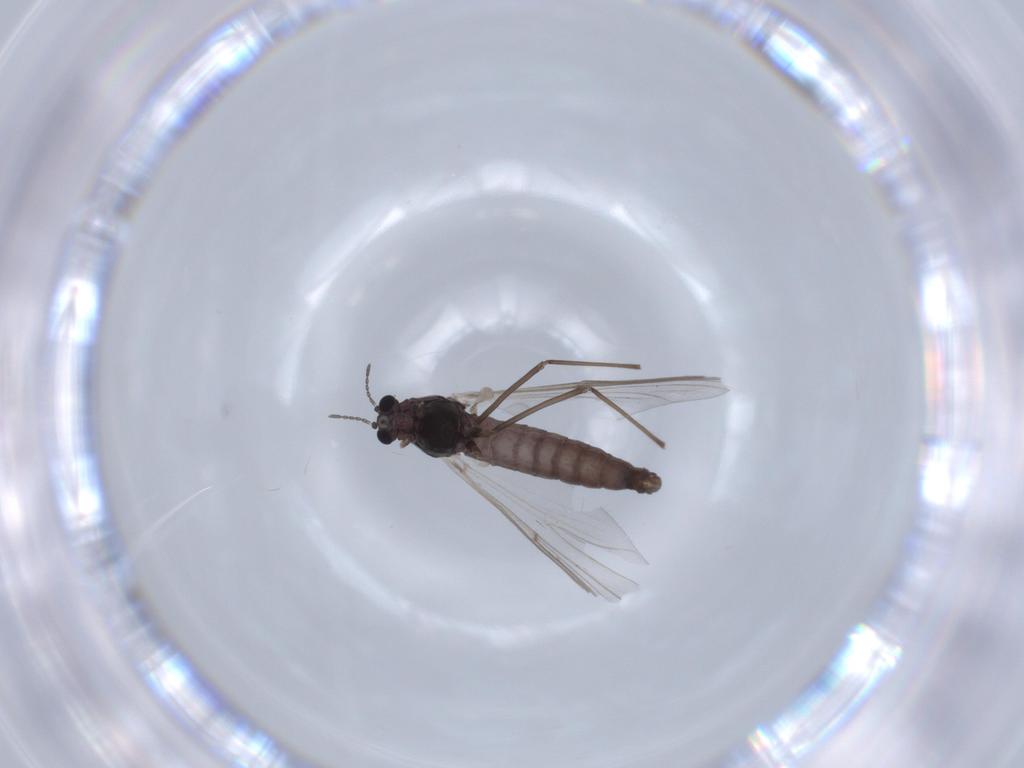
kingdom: Animalia
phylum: Arthropoda
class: Insecta
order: Diptera
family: Chironomidae
